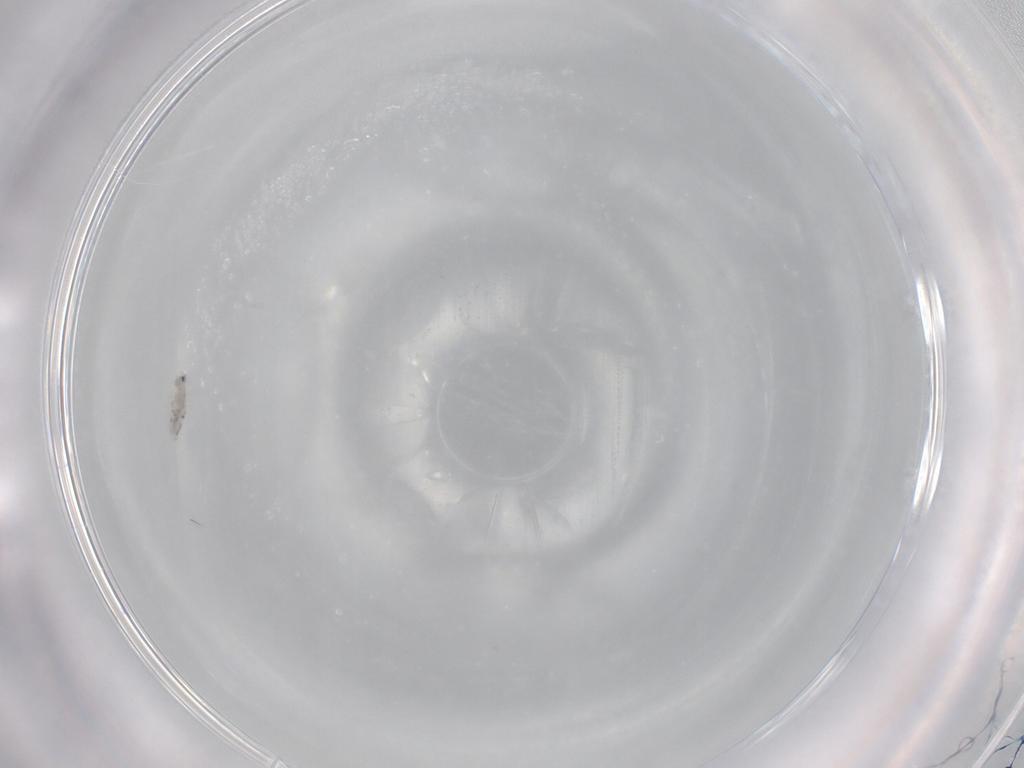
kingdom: Animalia
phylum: Arthropoda
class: Collembola
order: Entomobryomorpha
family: Entomobryidae
